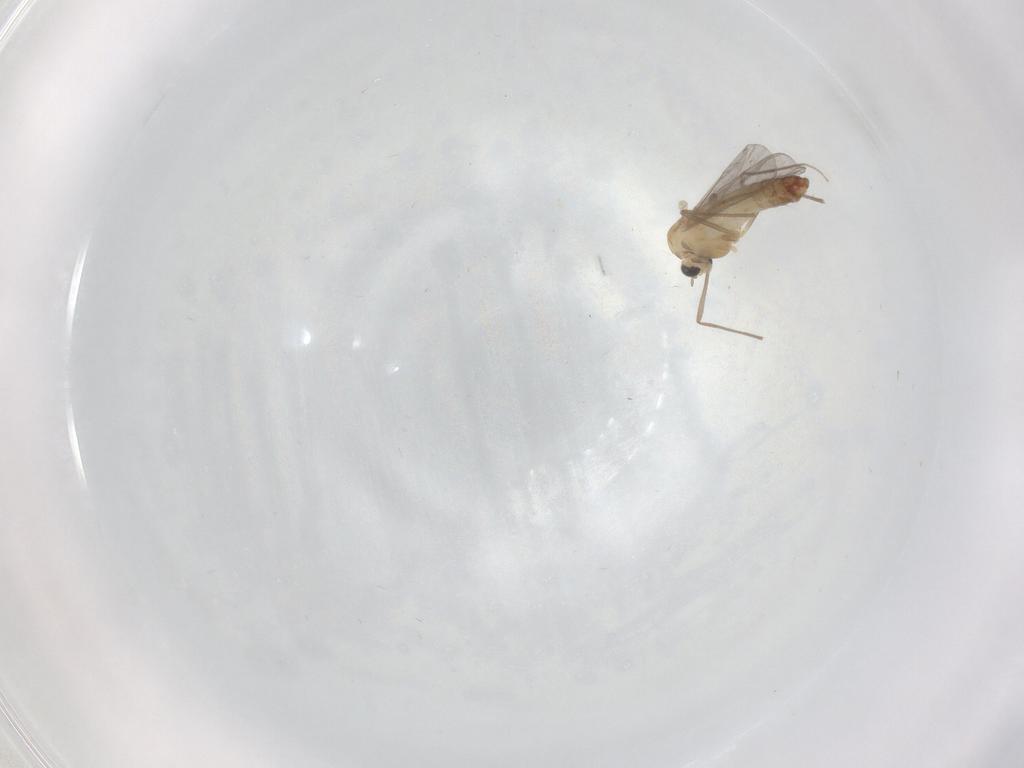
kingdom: Animalia
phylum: Arthropoda
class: Insecta
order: Diptera
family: Limoniidae
